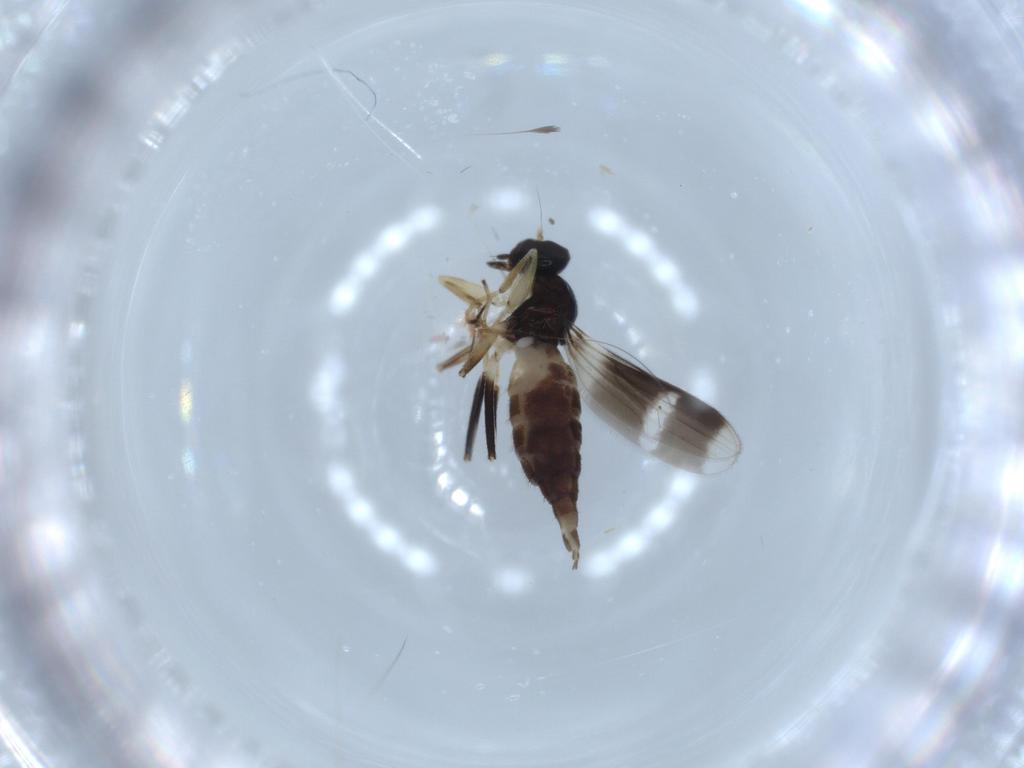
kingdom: Animalia
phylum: Arthropoda
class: Insecta
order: Diptera
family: Hybotidae
